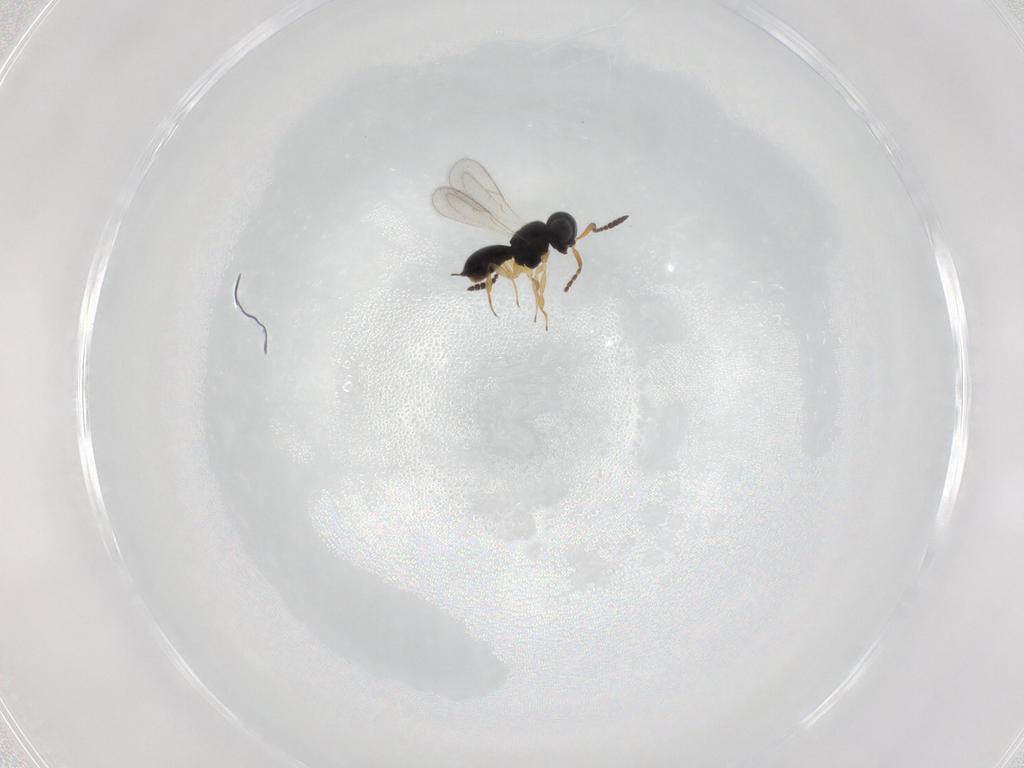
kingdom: Animalia
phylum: Arthropoda
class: Insecta
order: Hymenoptera
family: Scelionidae
